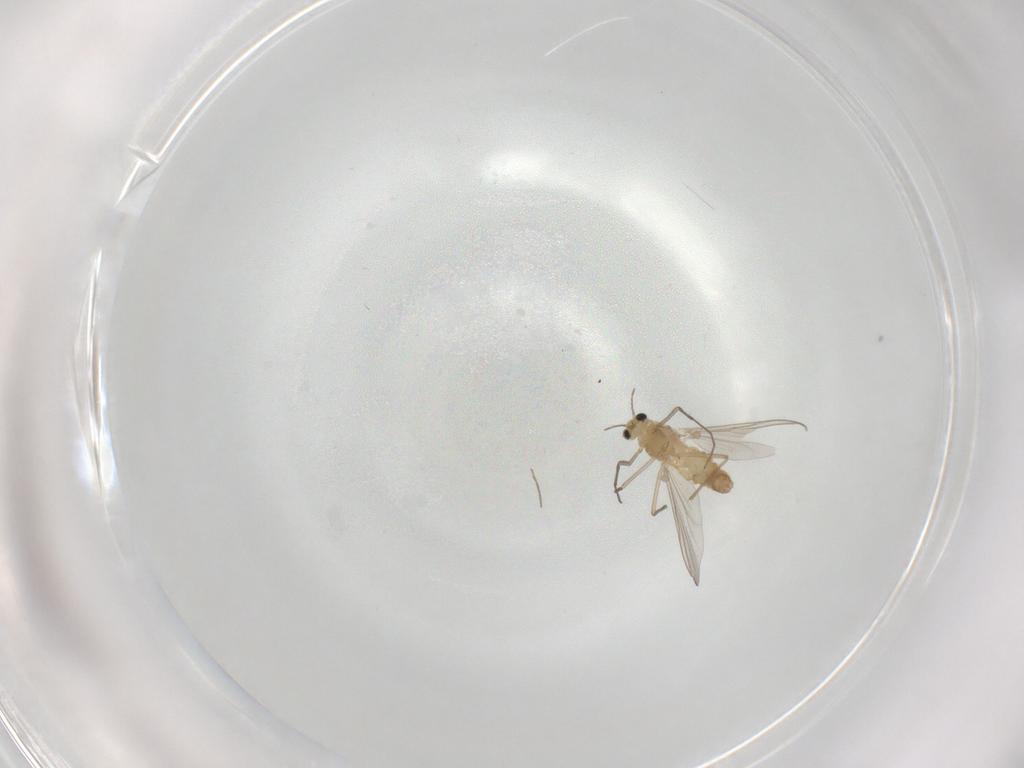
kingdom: Animalia
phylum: Arthropoda
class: Insecta
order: Diptera
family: Chironomidae
